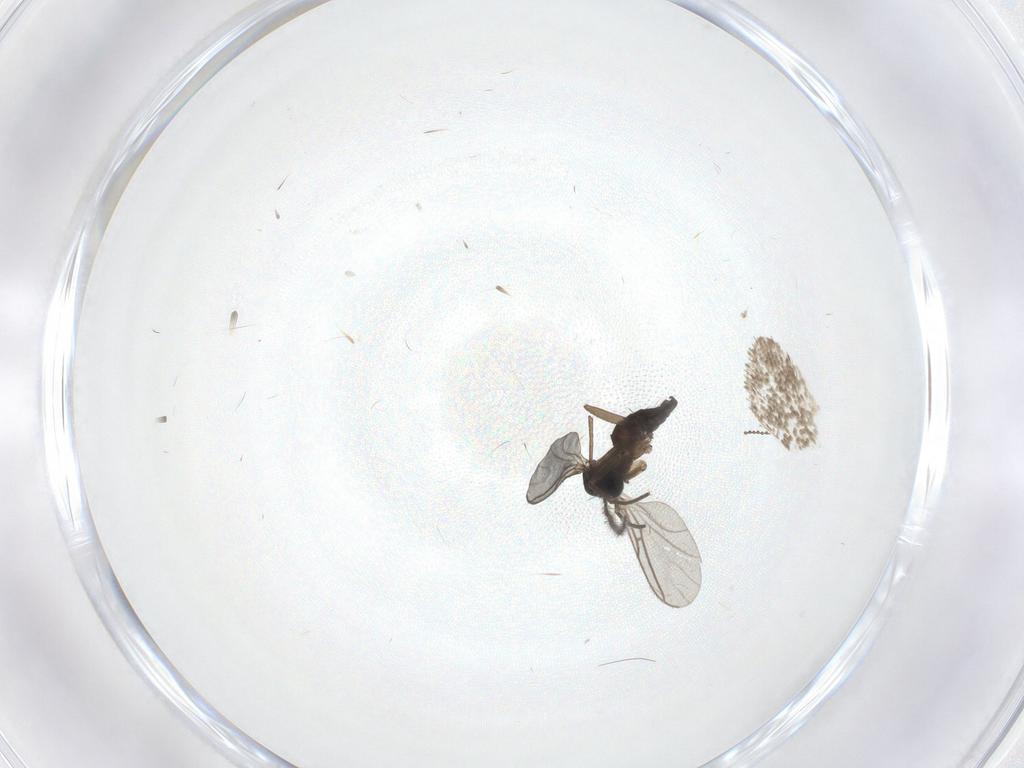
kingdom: Animalia
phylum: Arthropoda
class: Insecta
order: Diptera
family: Sciaridae
